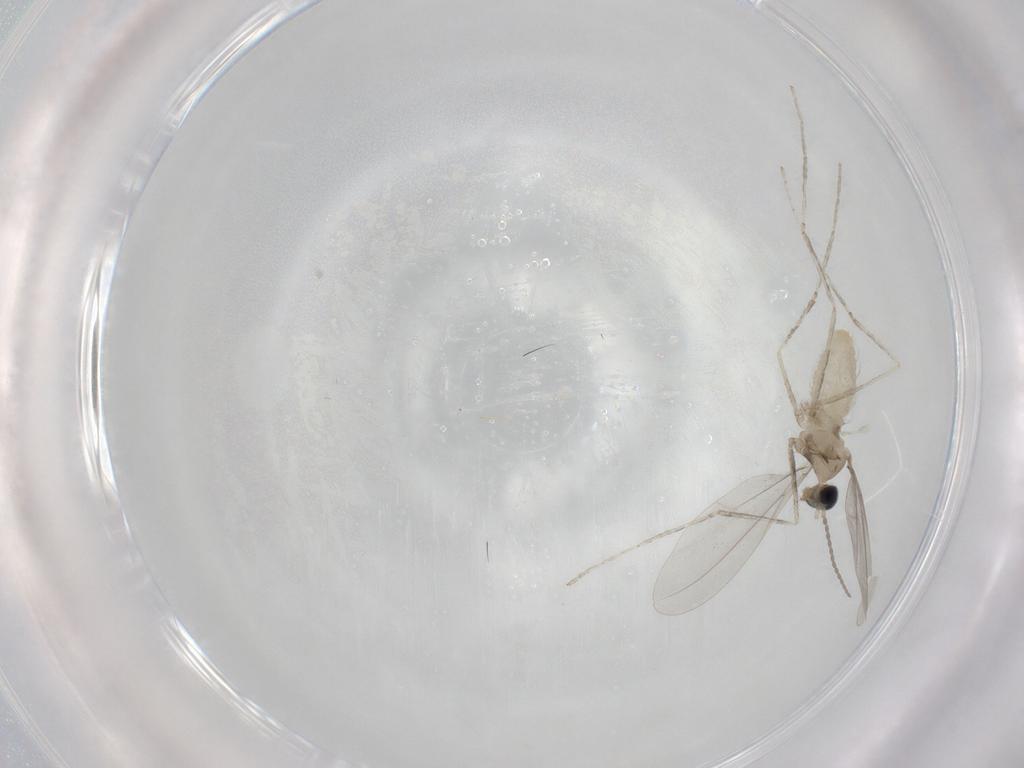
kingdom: Animalia
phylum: Arthropoda
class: Insecta
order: Diptera
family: Cecidomyiidae
